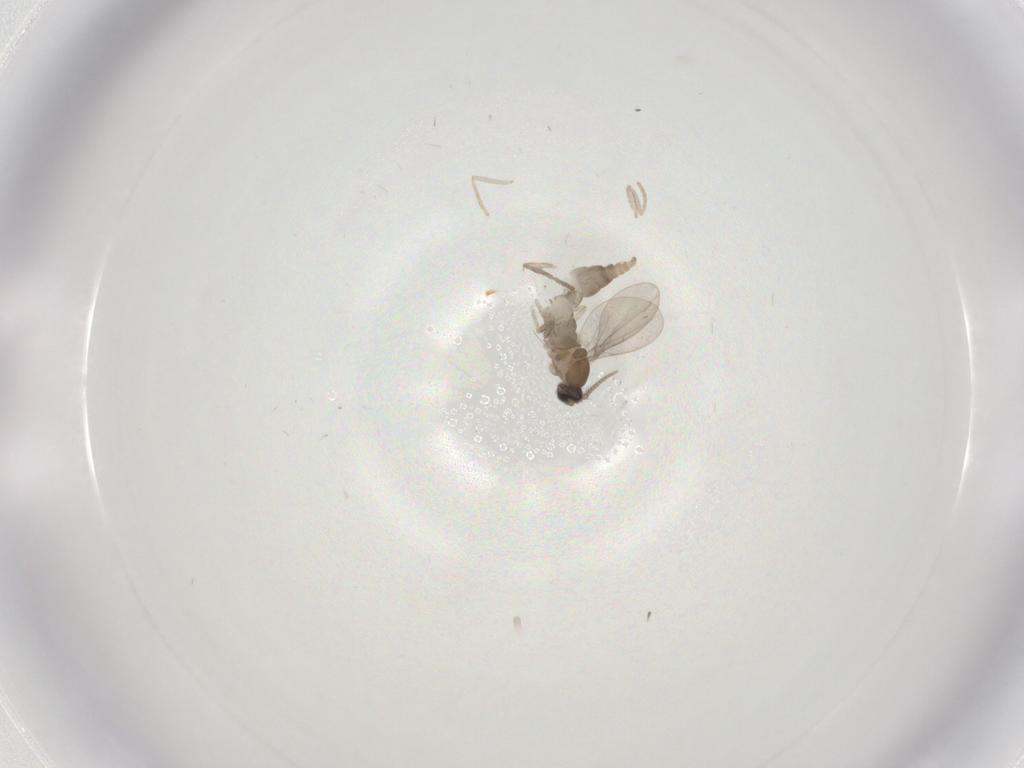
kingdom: Animalia
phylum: Arthropoda
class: Insecta
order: Diptera
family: Cecidomyiidae
